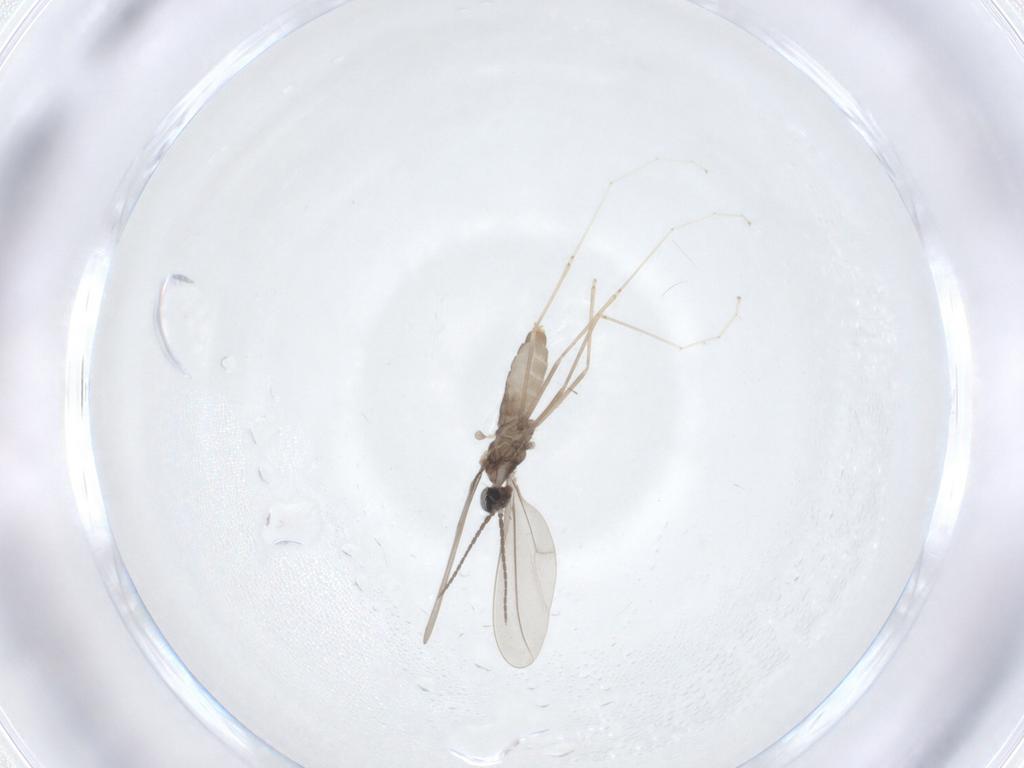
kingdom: Animalia
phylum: Arthropoda
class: Insecta
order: Diptera
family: Cecidomyiidae
